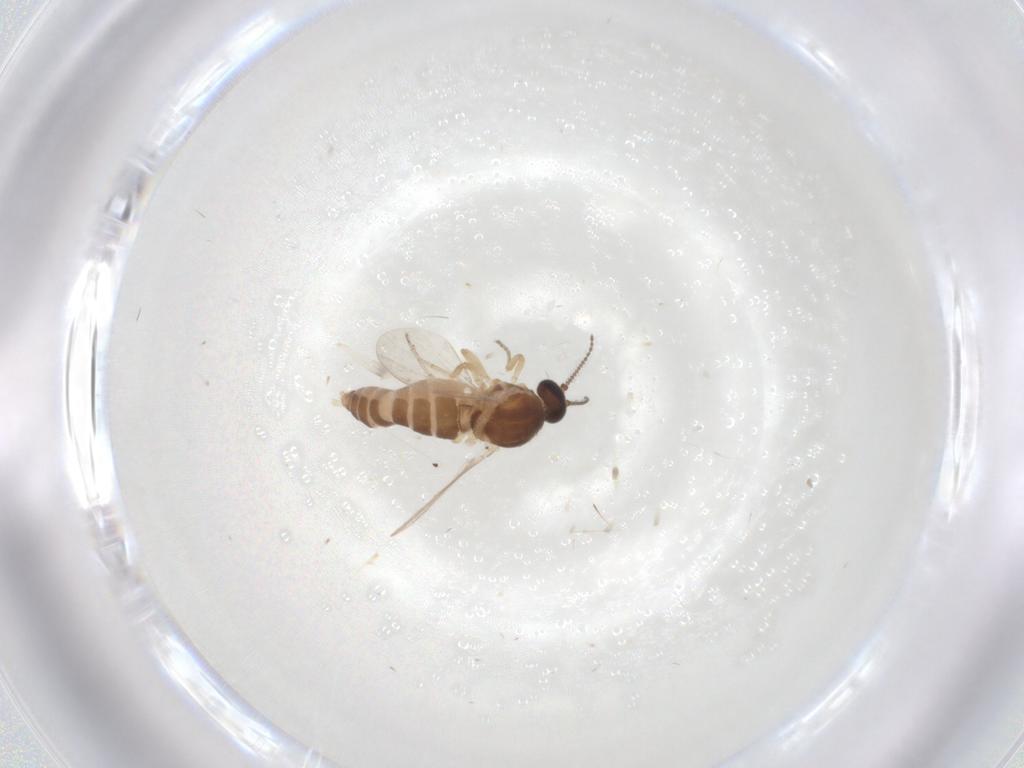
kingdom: Animalia
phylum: Arthropoda
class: Insecta
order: Diptera
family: Ceratopogonidae
